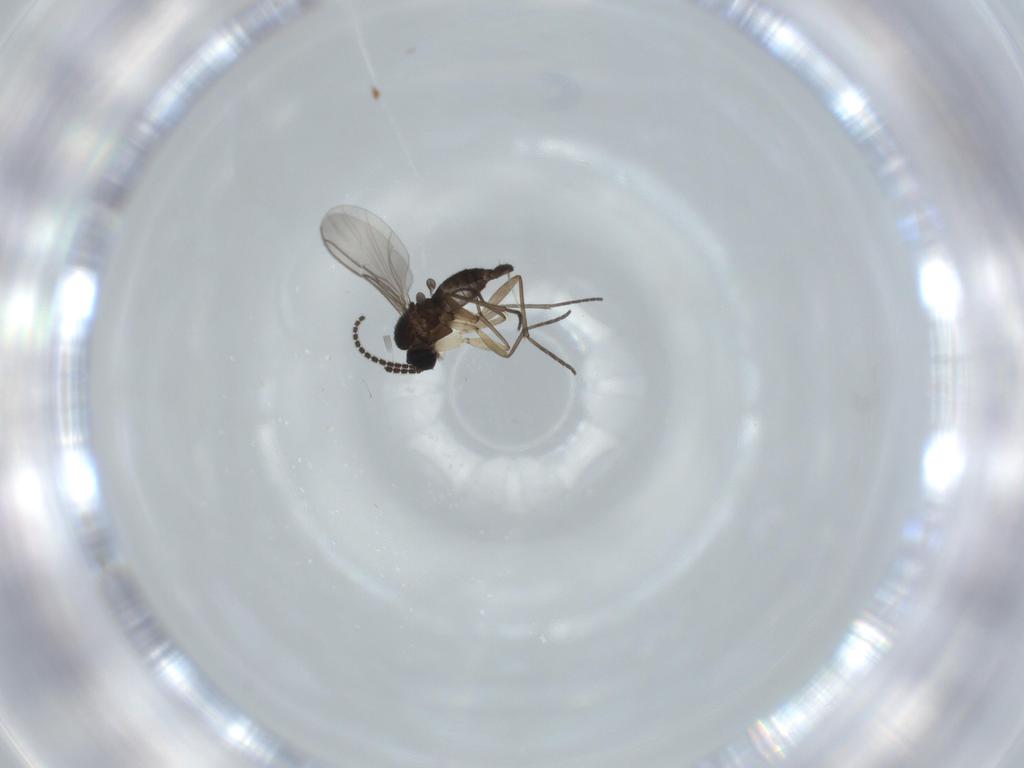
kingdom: Animalia
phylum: Arthropoda
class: Insecta
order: Diptera
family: Sciaridae
